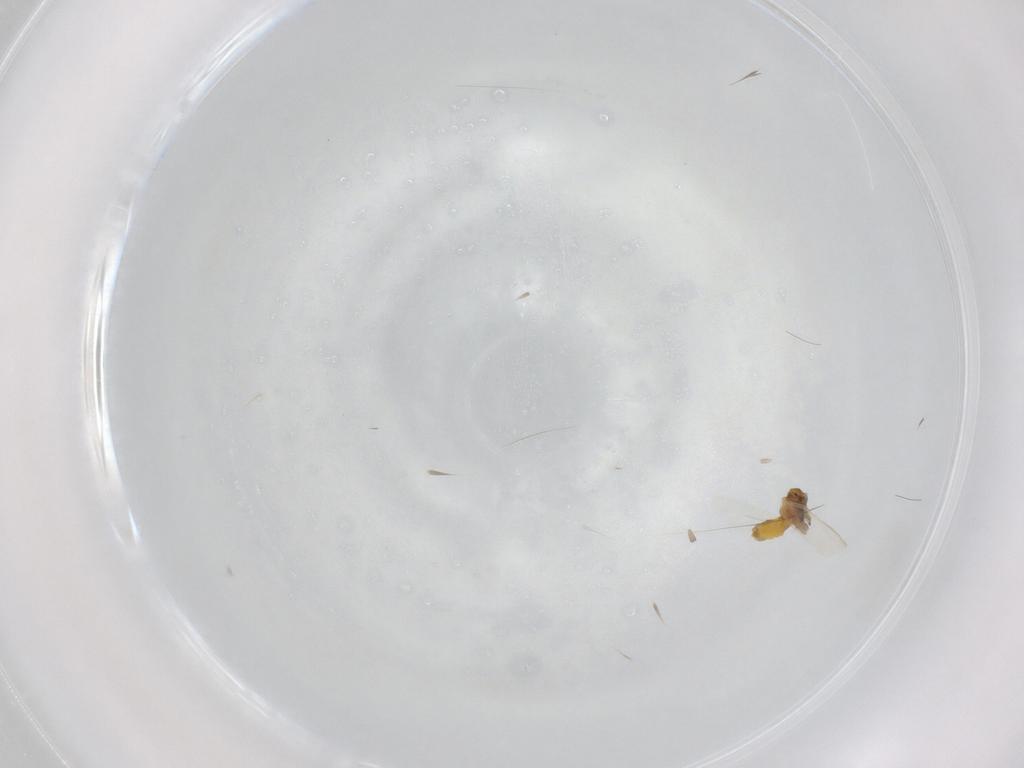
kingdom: Animalia
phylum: Arthropoda
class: Insecta
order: Hemiptera
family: Aleyrodidae
